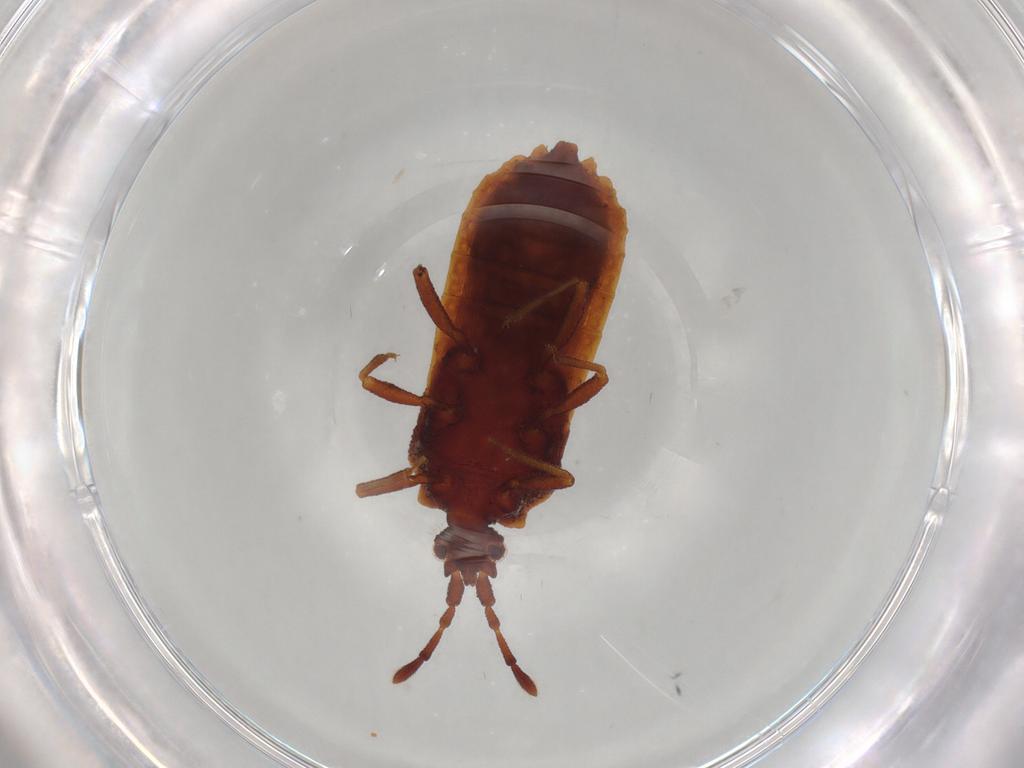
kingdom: Animalia
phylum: Arthropoda
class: Insecta
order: Hemiptera
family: Aradidae
